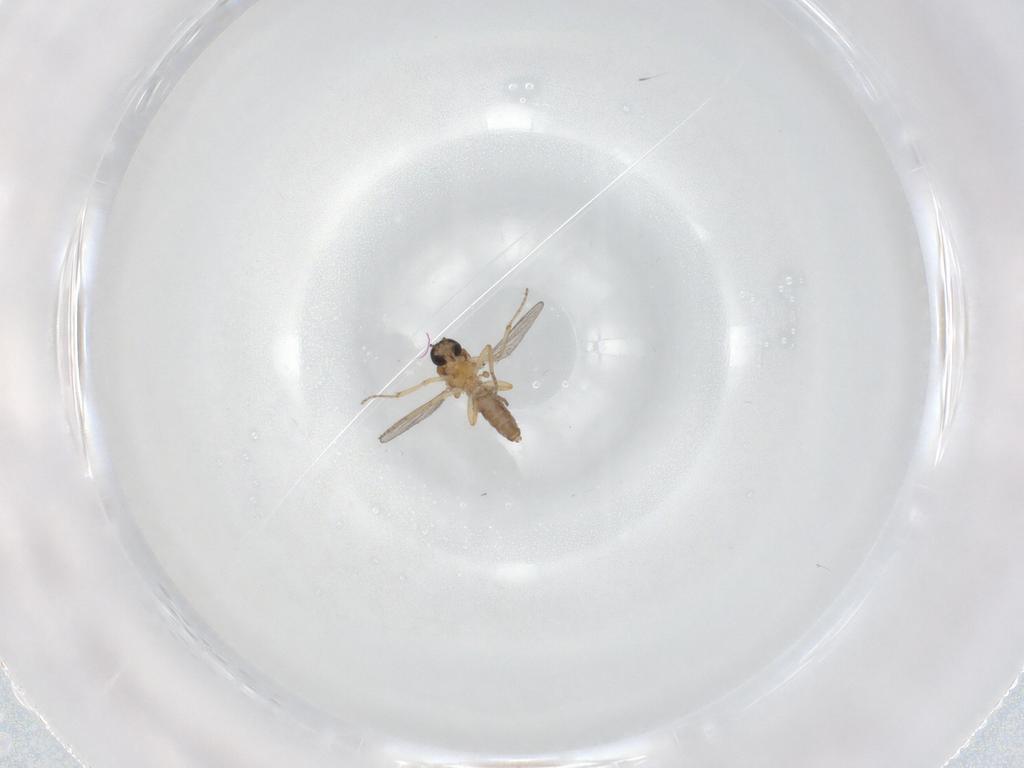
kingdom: Animalia
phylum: Arthropoda
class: Insecta
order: Diptera
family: Phoridae
